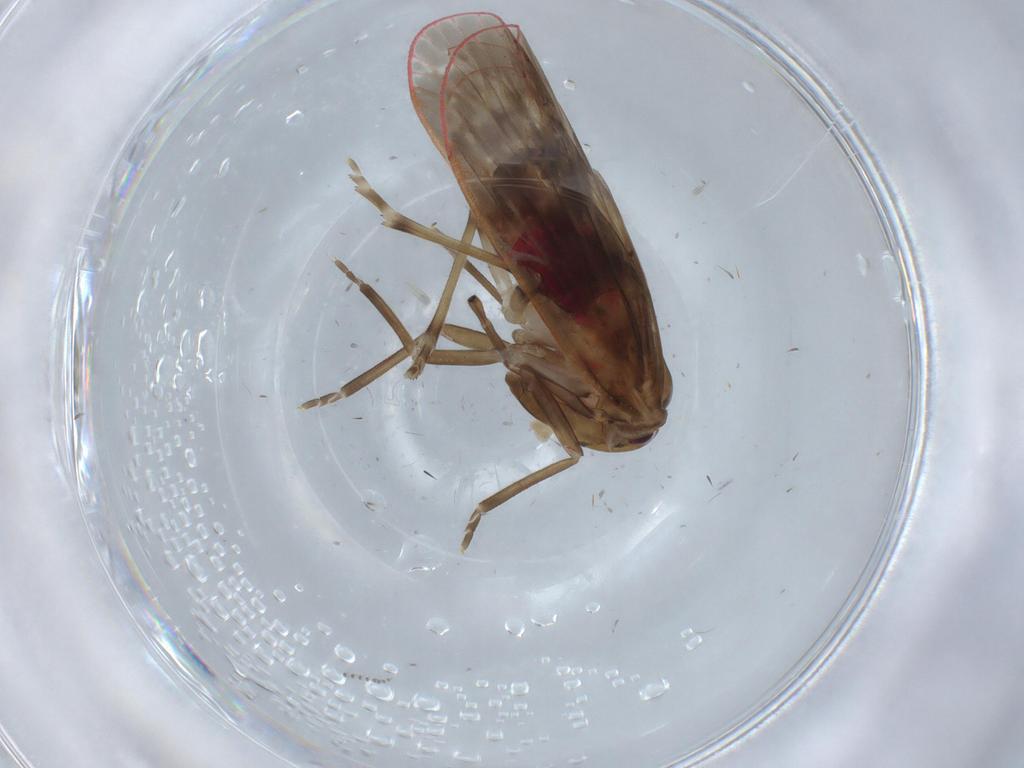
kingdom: Animalia
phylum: Arthropoda
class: Insecta
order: Hemiptera
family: Achilidae
